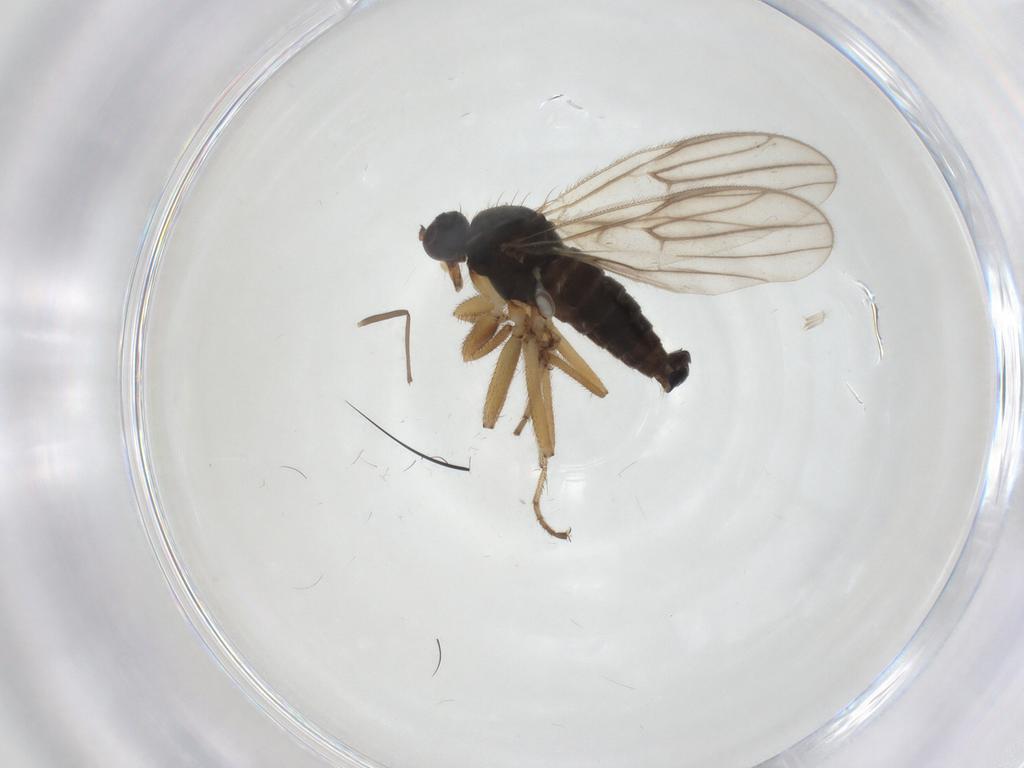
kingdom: Animalia
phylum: Arthropoda
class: Insecta
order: Diptera
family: Hybotidae
